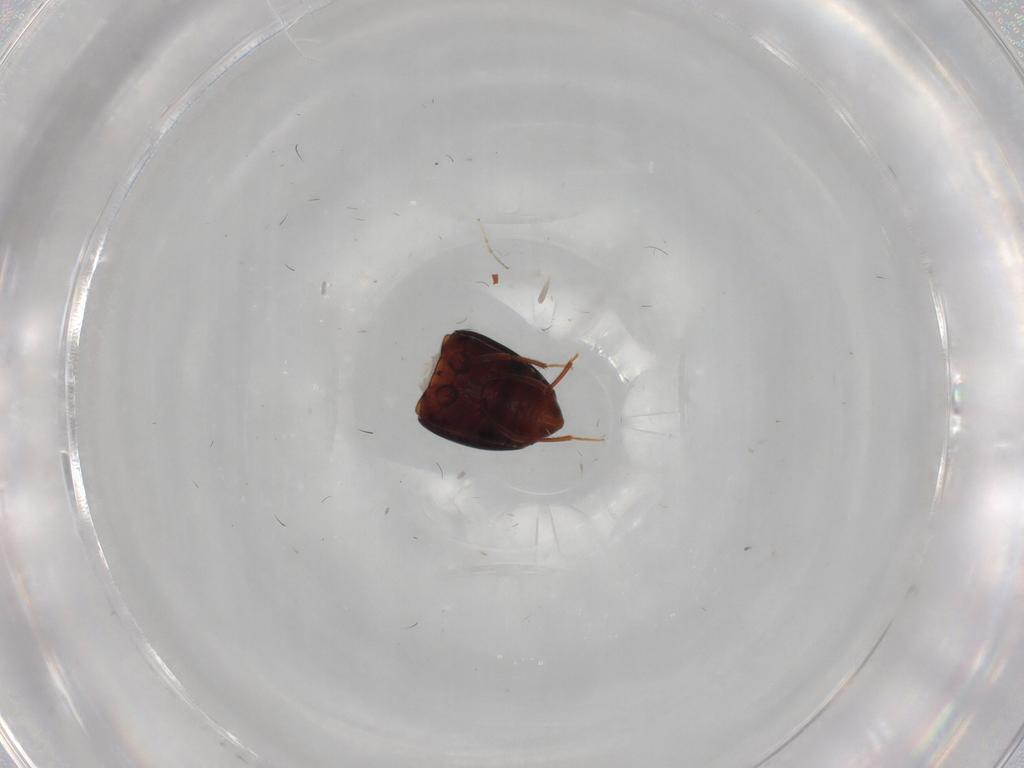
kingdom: Animalia
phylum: Arthropoda
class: Insecta
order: Coleoptera
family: Staphylinidae
